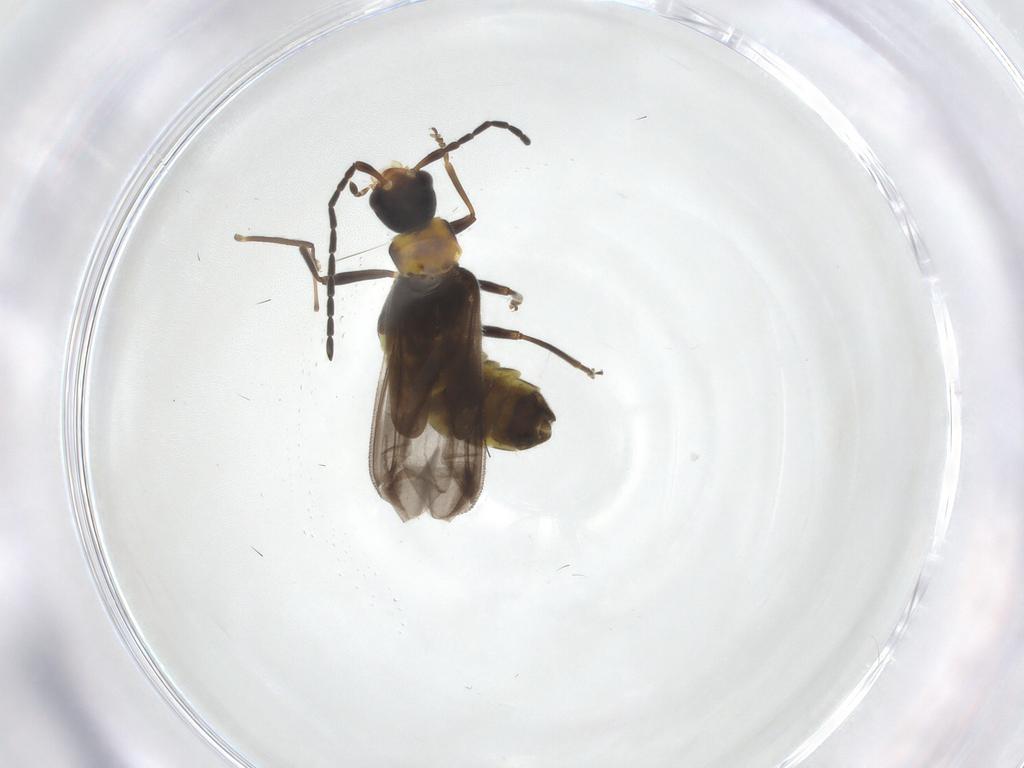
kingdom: Animalia
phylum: Arthropoda
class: Insecta
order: Coleoptera
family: Cantharidae
